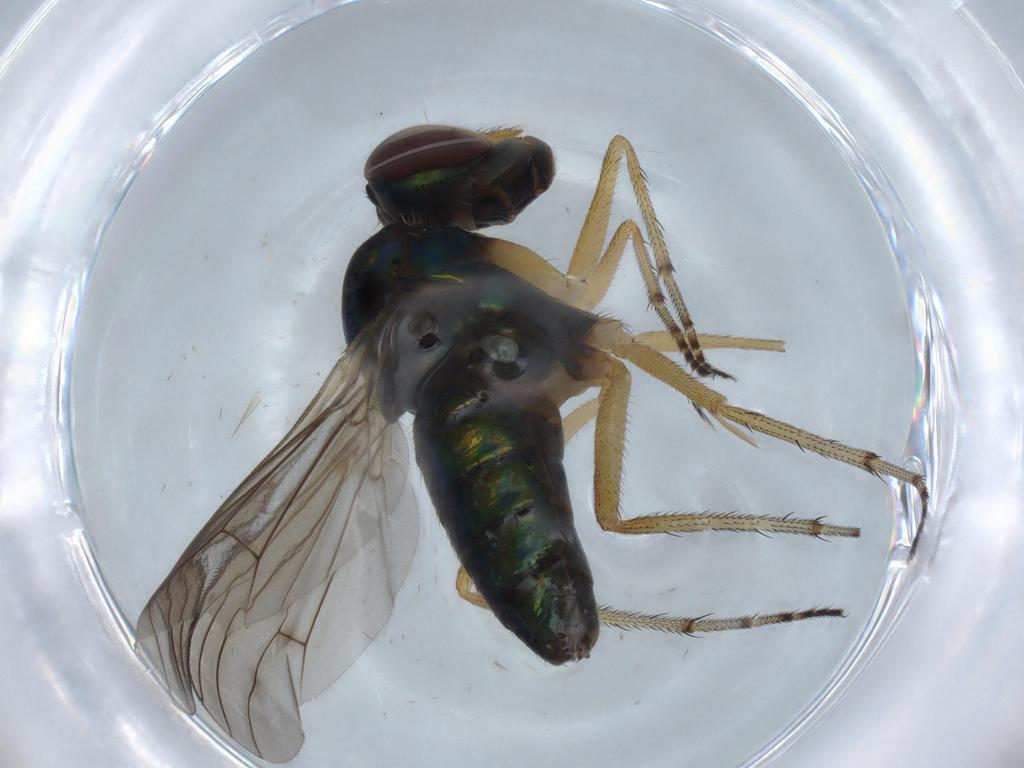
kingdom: Animalia
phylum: Arthropoda
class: Insecta
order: Diptera
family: Dolichopodidae
